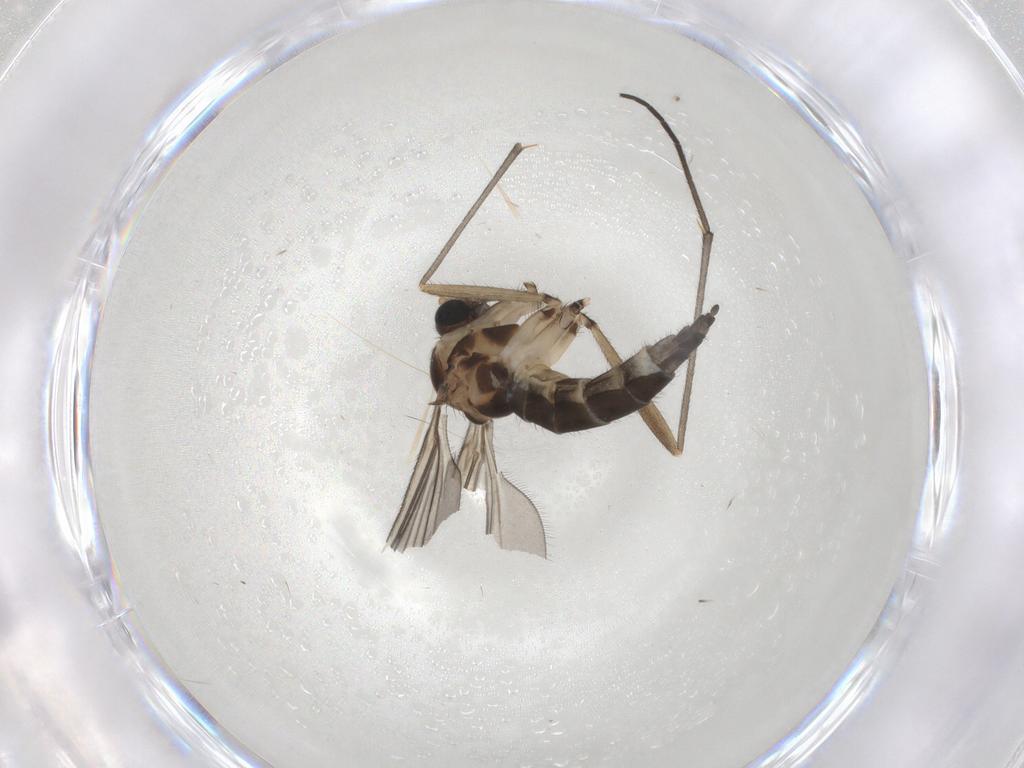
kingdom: Animalia
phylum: Arthropoda
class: Insecta
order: Diptera
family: Sciaridae
